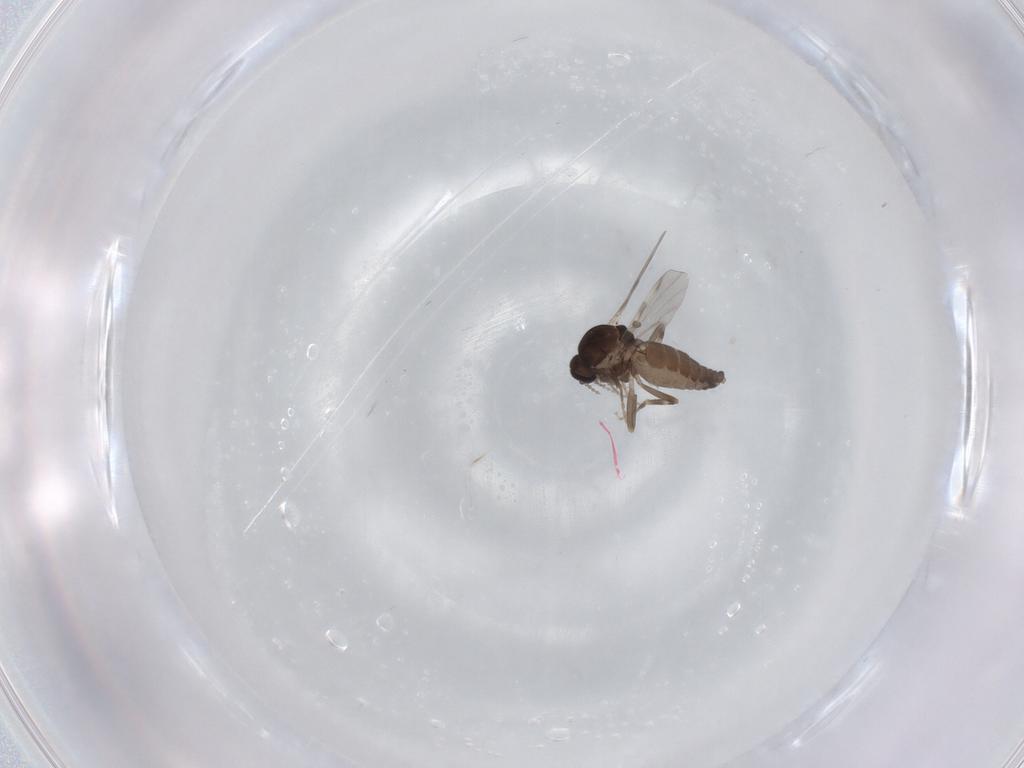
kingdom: Animalia
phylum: Arthropoda
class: Insecta
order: Diptera
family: Ceratopogonidae
